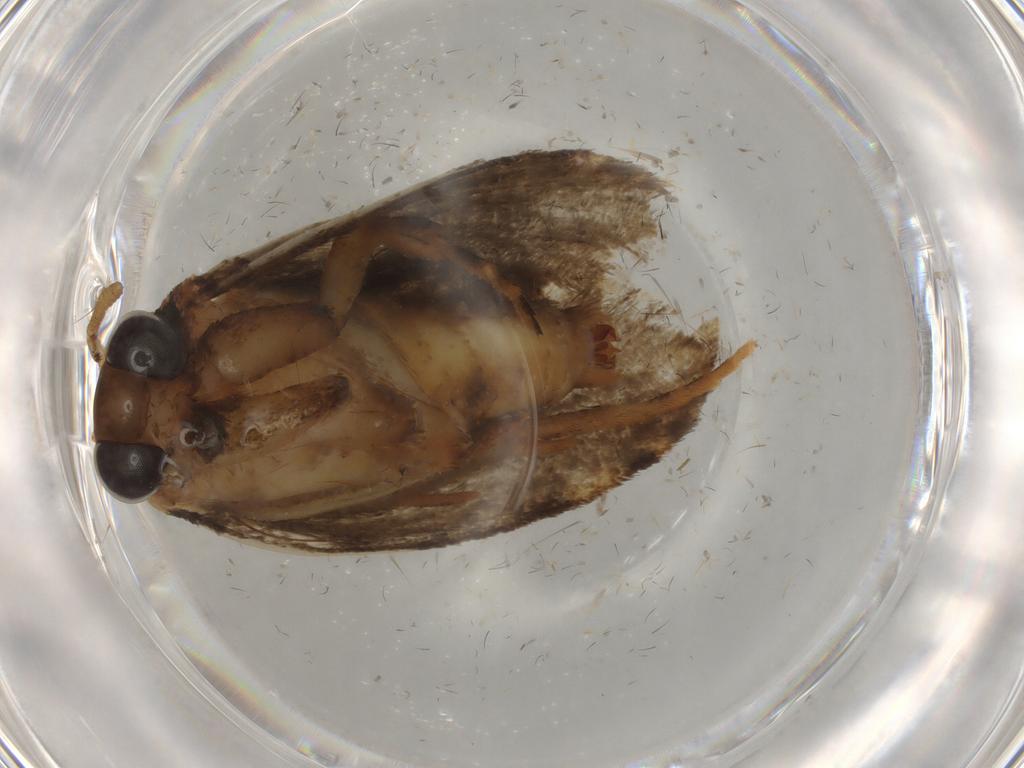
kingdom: Animalia
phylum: Arthropoda
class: Insecta
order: Lepidoptera
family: Tineidae
